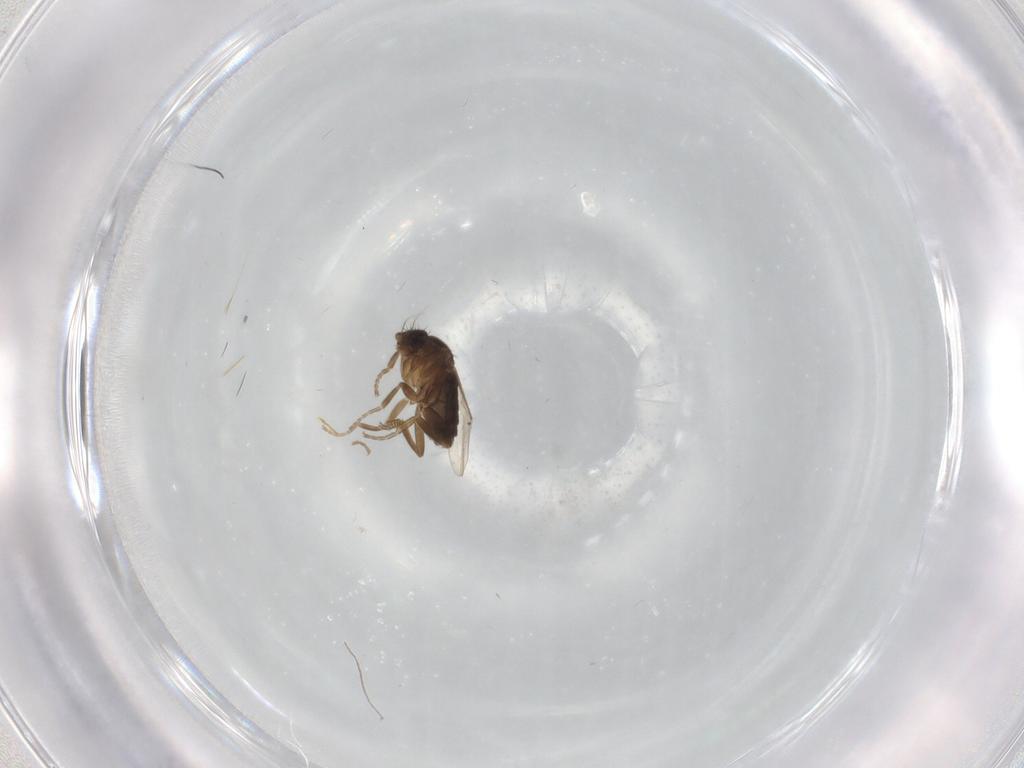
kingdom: Animalia
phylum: Arthropoda
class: Insecta
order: Diptera
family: Phoridae
